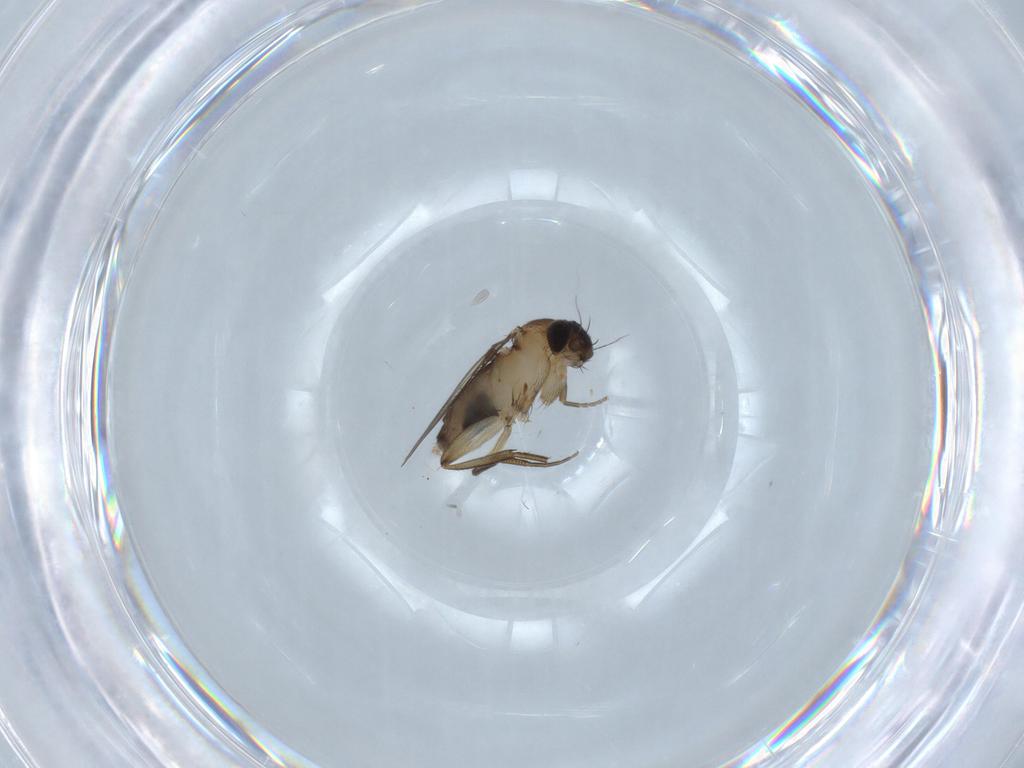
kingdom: Animalia
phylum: Arthropoda
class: Insecta
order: Diptera
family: Phoridae
